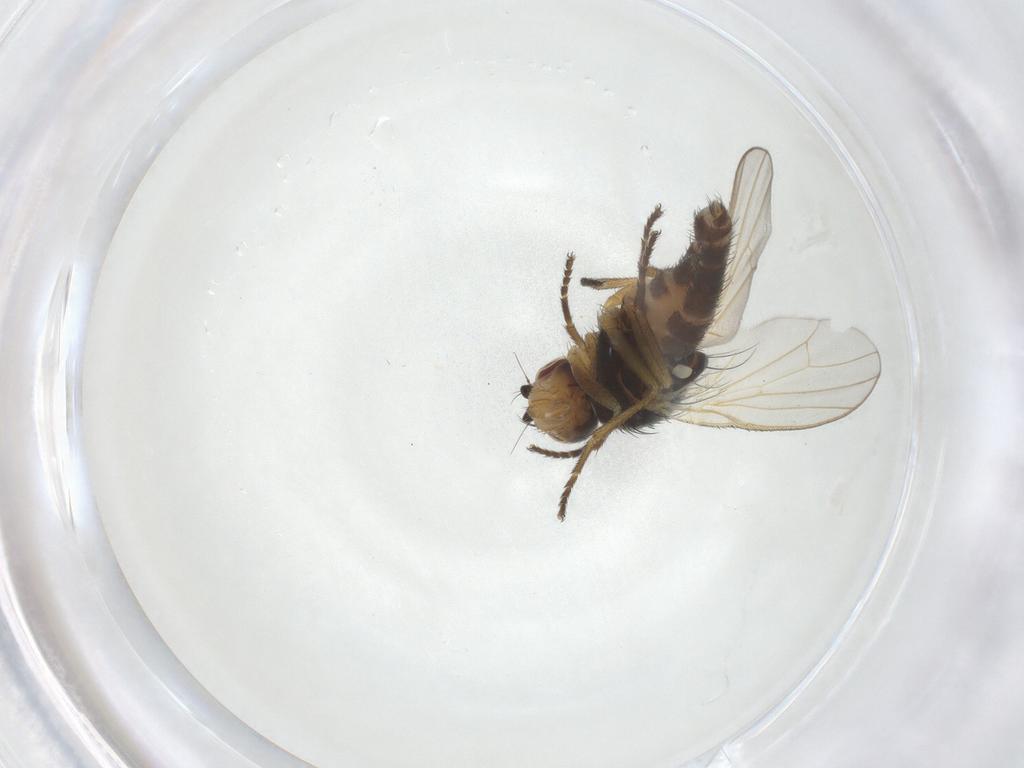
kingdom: Animalia
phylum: Arthropoda
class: Insecta
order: Diptera
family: Heleomyzidae
